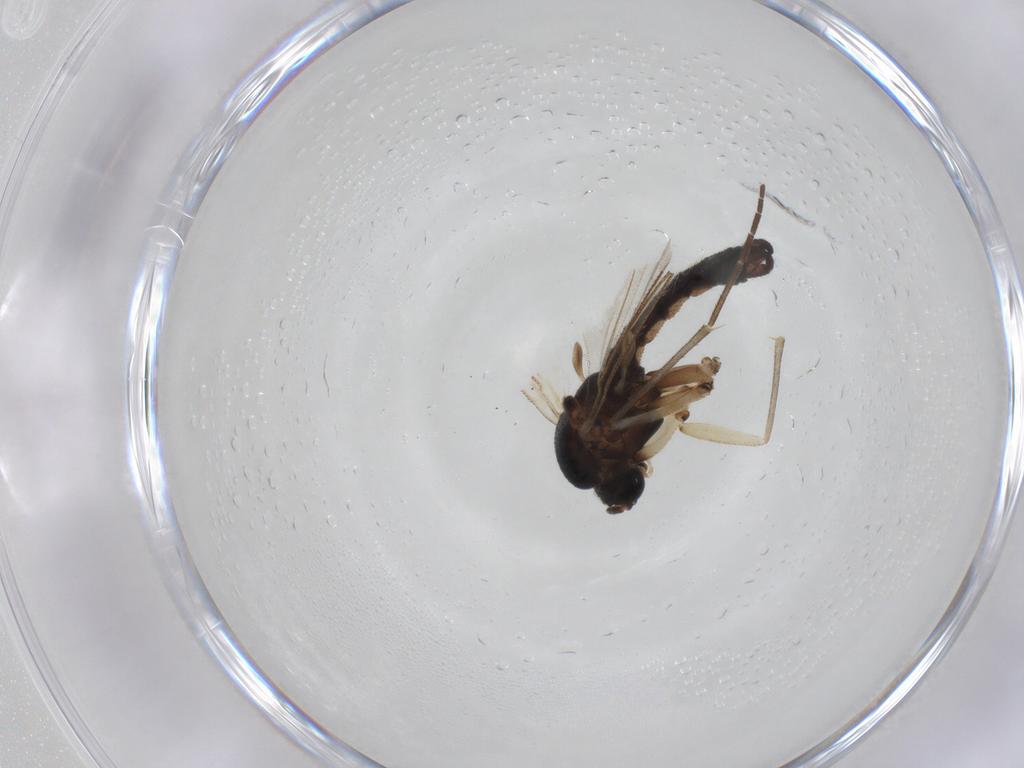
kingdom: Animalia
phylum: Arthropoda
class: Insecta
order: Diptera
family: Sciaridae
